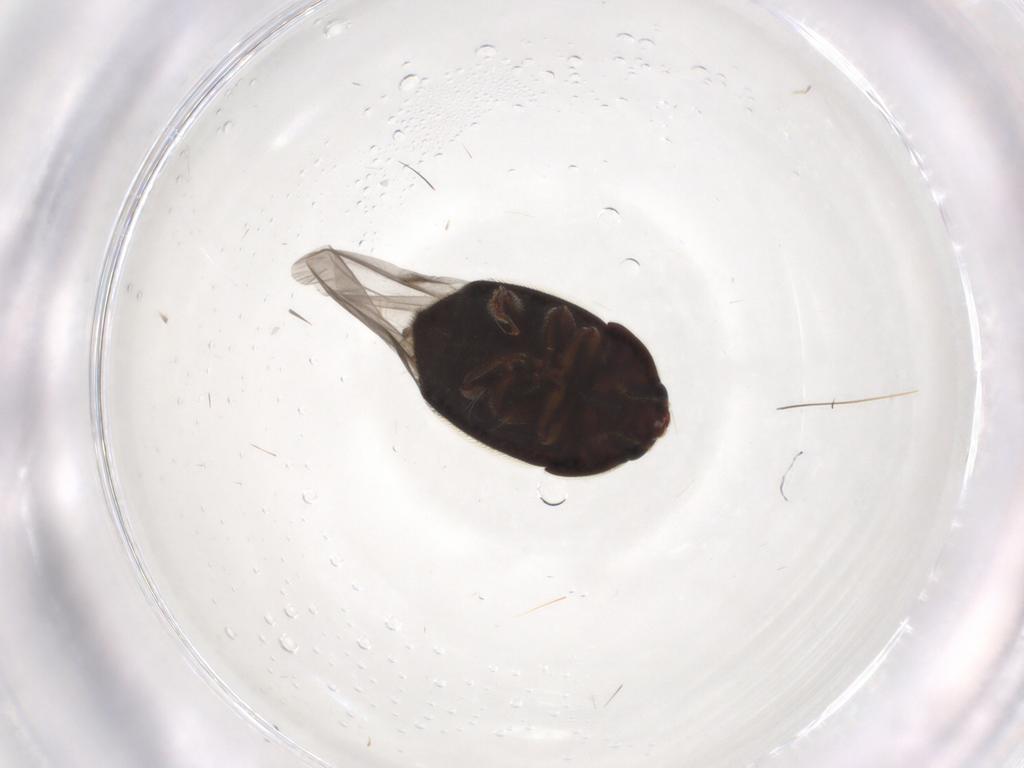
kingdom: Animalia
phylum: Arthropoda
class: Insecta
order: Coleoptera
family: Nitidulidae
